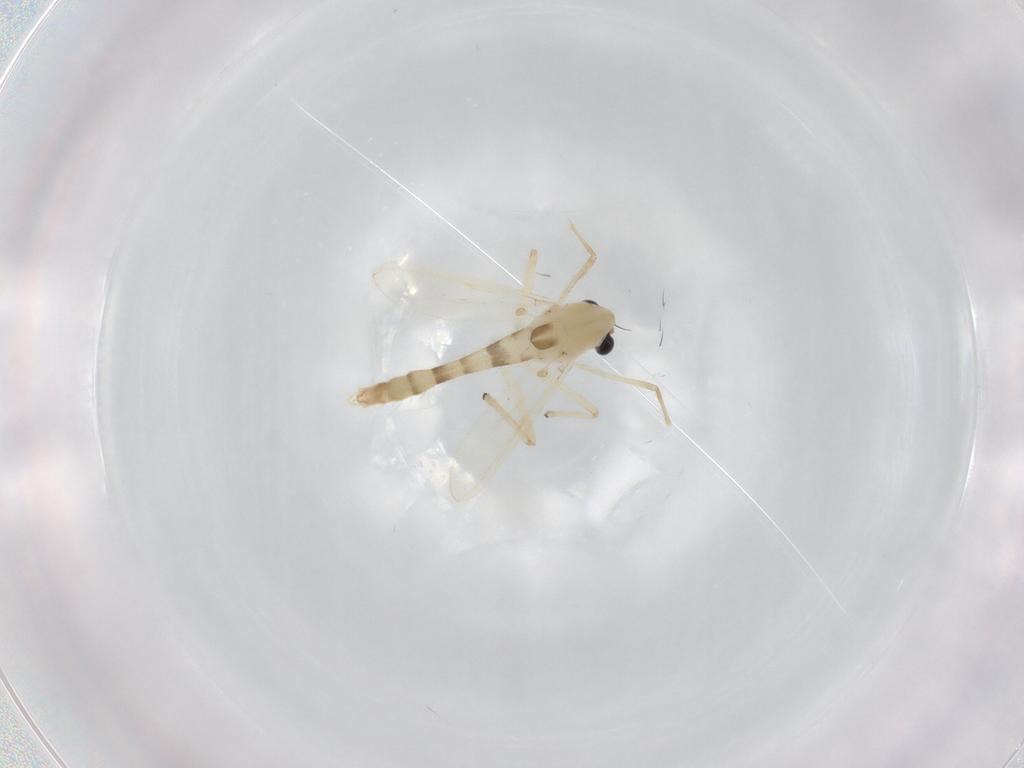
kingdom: Animalia
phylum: Arthropoda
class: Insecta
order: Diptera
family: Chironomidae
